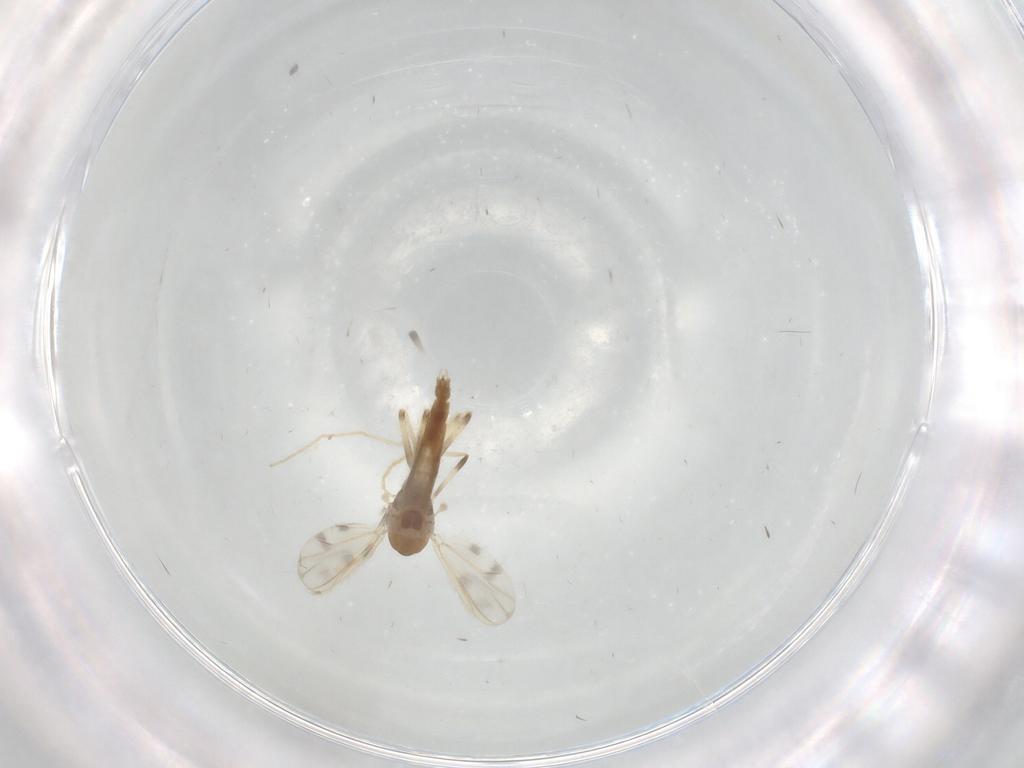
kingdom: Animalia
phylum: Arthropoda
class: Insecta
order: Diptera
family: Chironomidae
